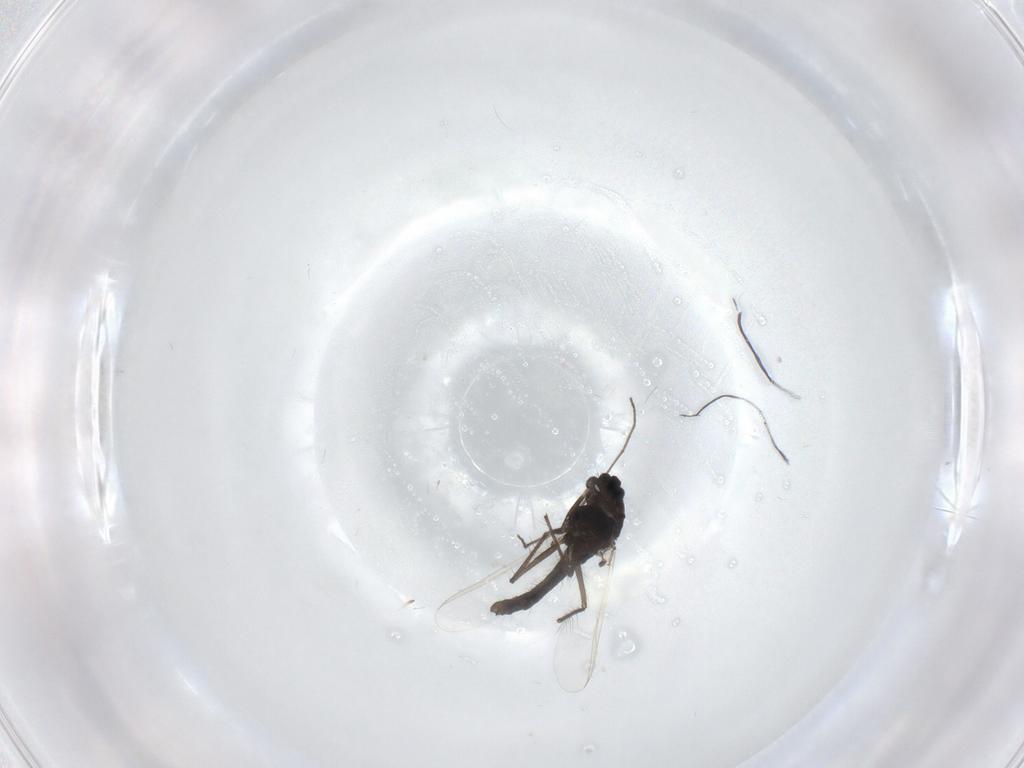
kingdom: Animalia
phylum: Arthropoda
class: Insecta
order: Diptera
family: Chironomidae
